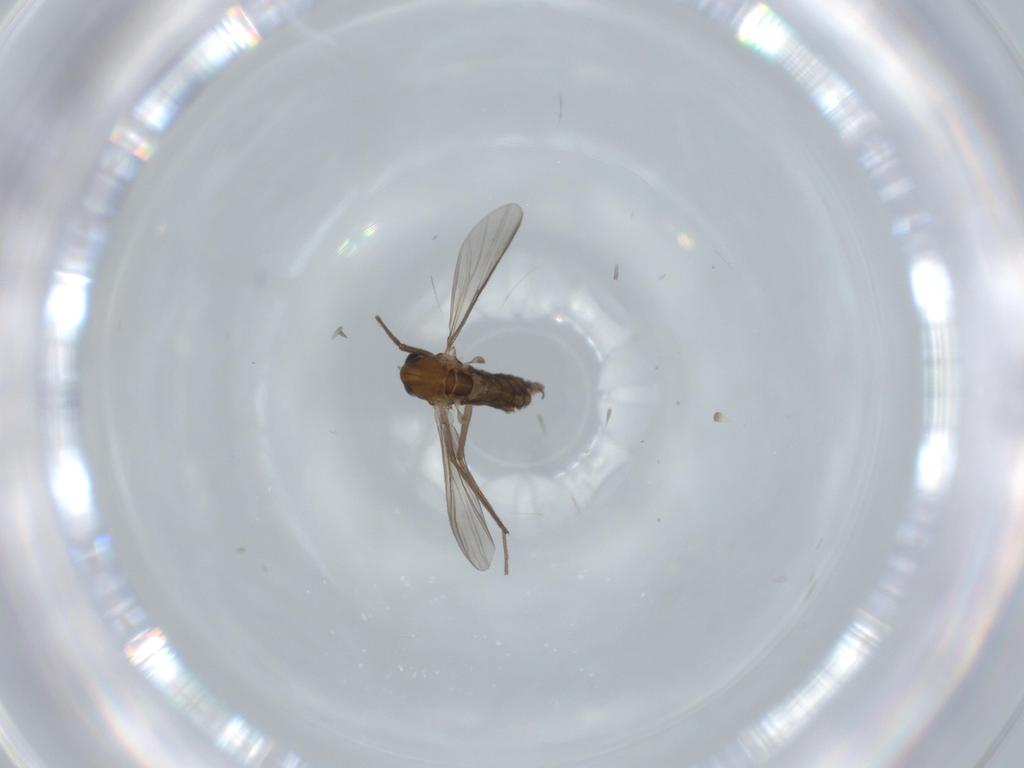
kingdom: Animalia
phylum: Arthropoda
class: Insecta
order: Diptera
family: Chironomidae
